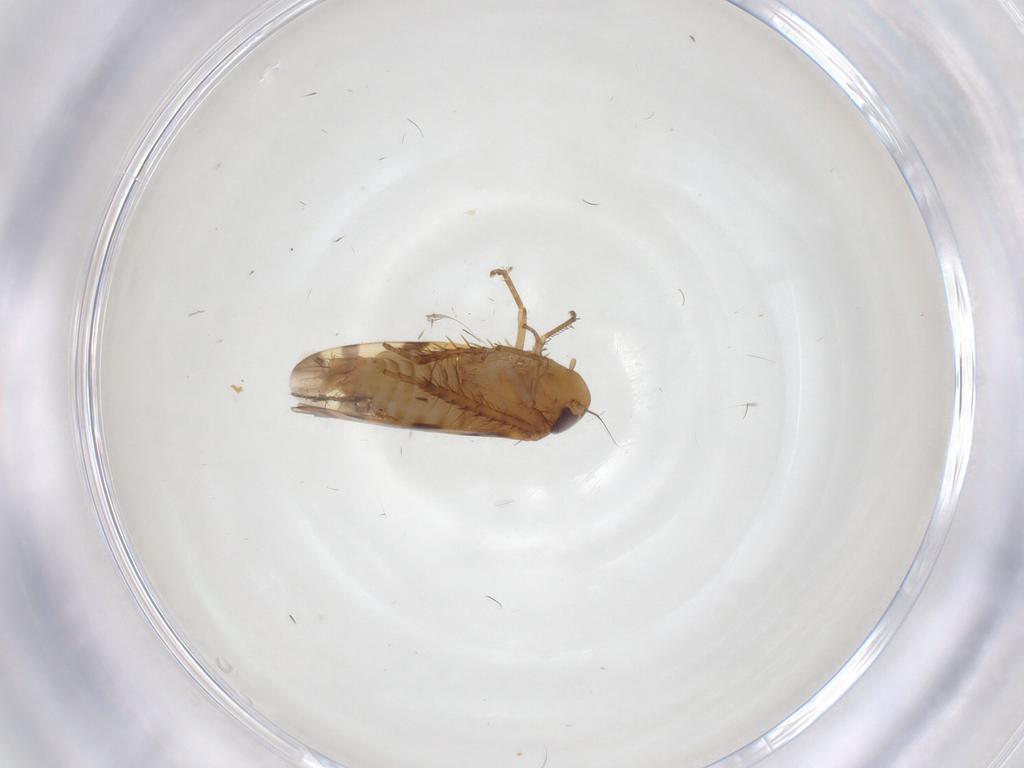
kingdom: Animalia
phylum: Arthropoda
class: Insecta
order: Hemiptera
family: Cicadellidae
